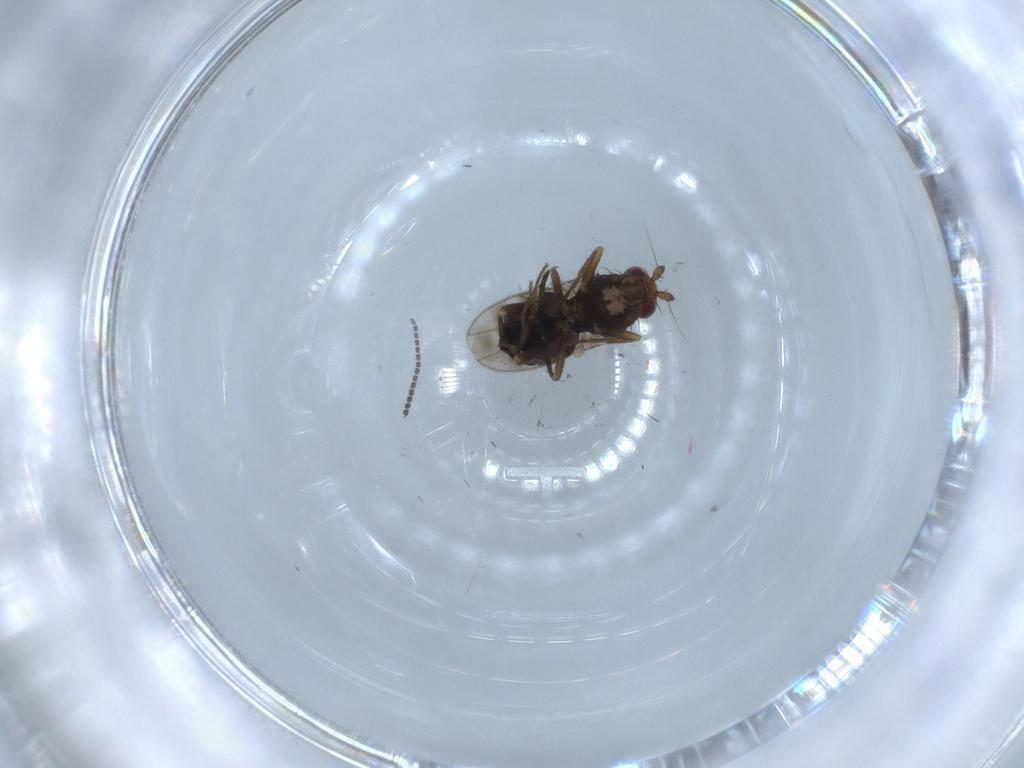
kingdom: Animalia
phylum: Arthropoda
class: Insecta
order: Diptera
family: Sphaeroceridae
